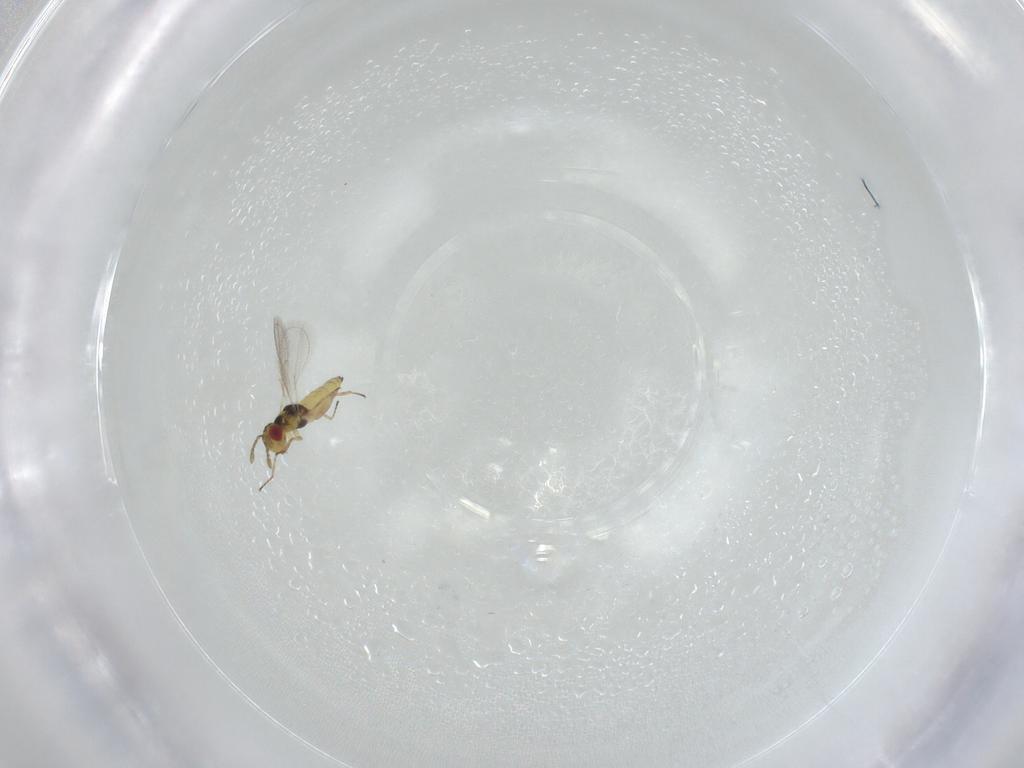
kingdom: Animalia
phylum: Arthropoda
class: Insecta
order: Hymenoptera
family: Eulophidae
